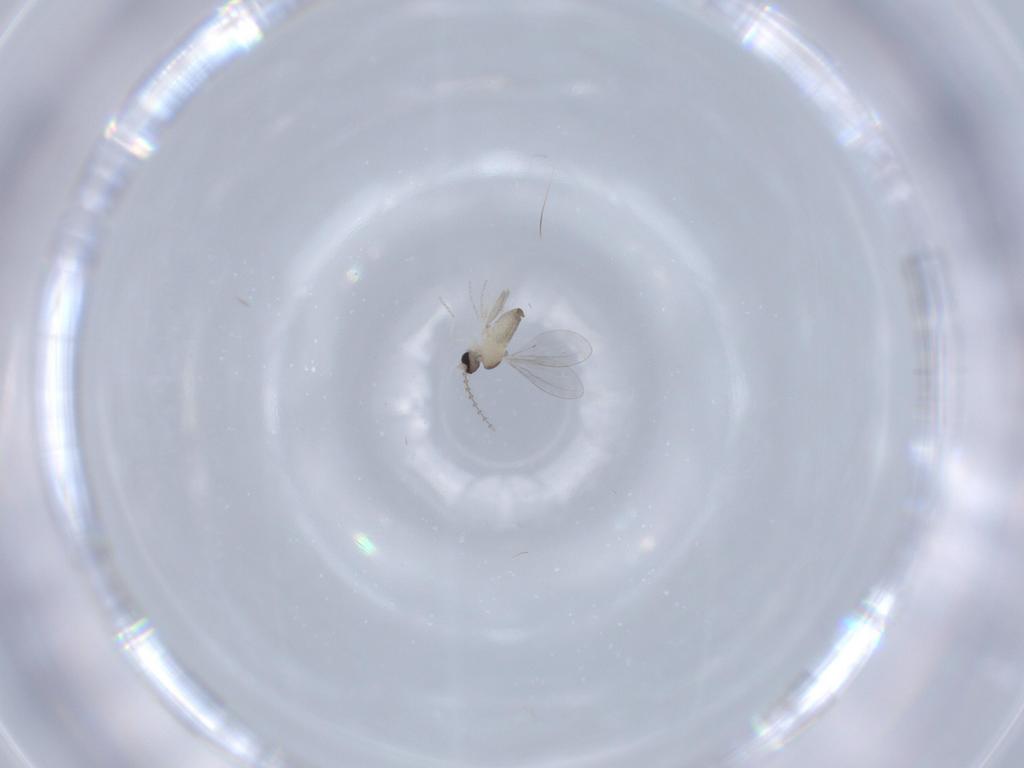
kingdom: Animalia
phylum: Arthropoda
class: Insecta
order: Diptera
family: Cecidomyiidae
